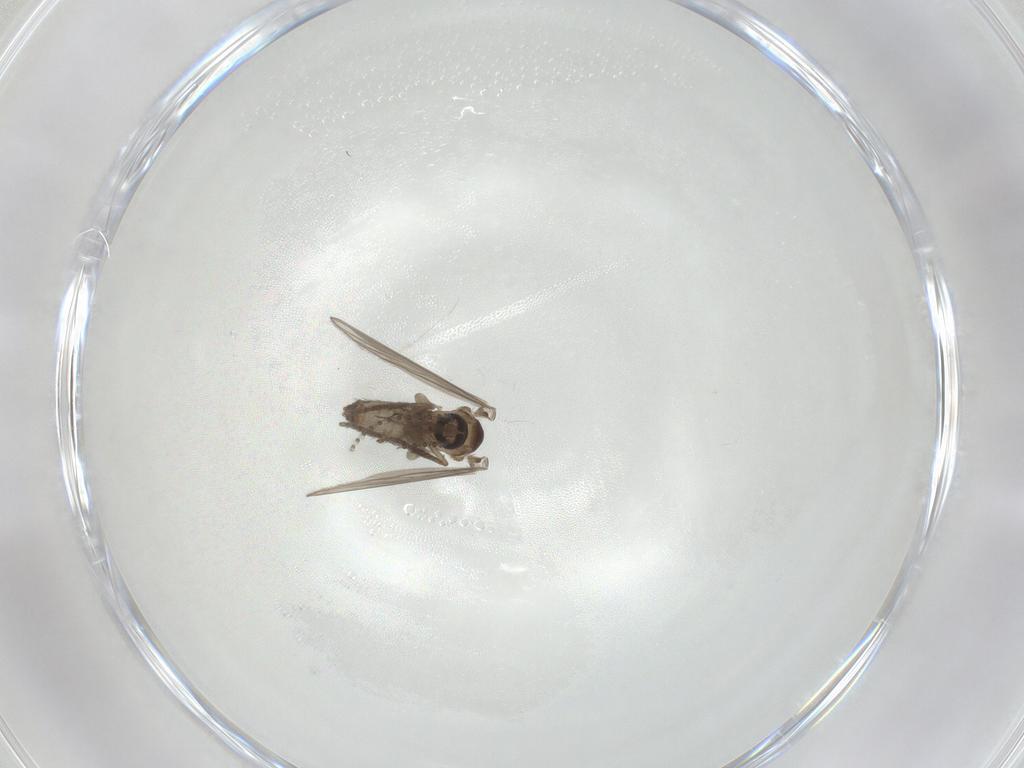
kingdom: Animalia
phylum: Arthropoda
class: Insecta
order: Diptera
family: Psychodidae
